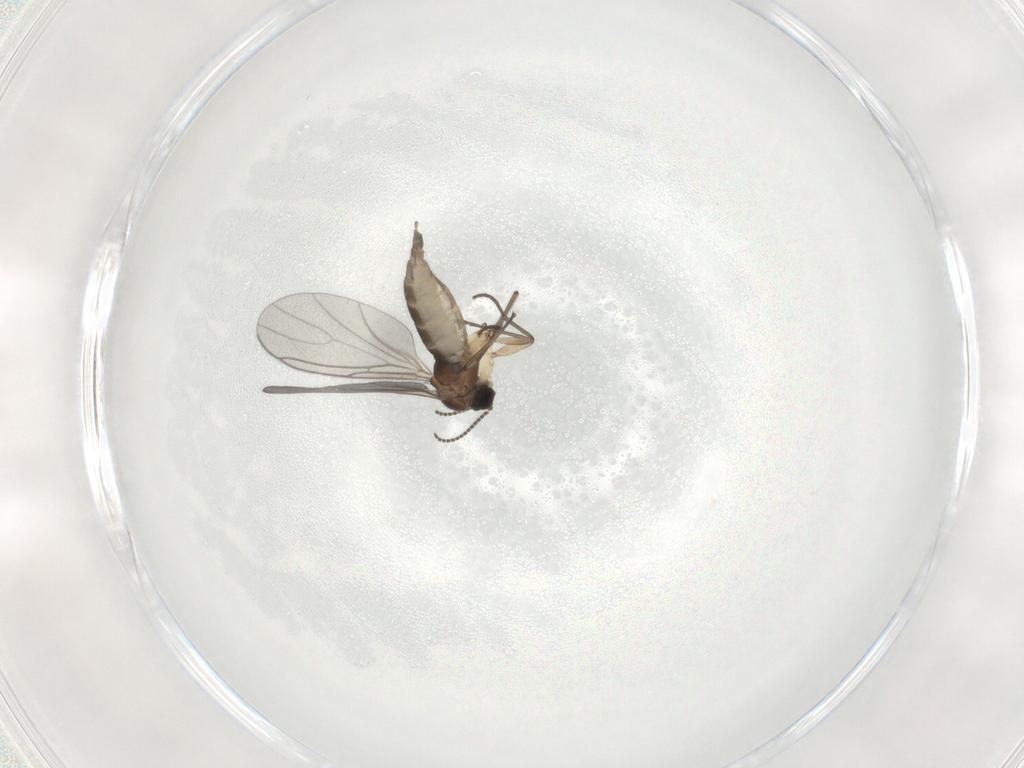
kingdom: Animalia
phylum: Arthropoda
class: Insecta
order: Diptera
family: Sciaridae
